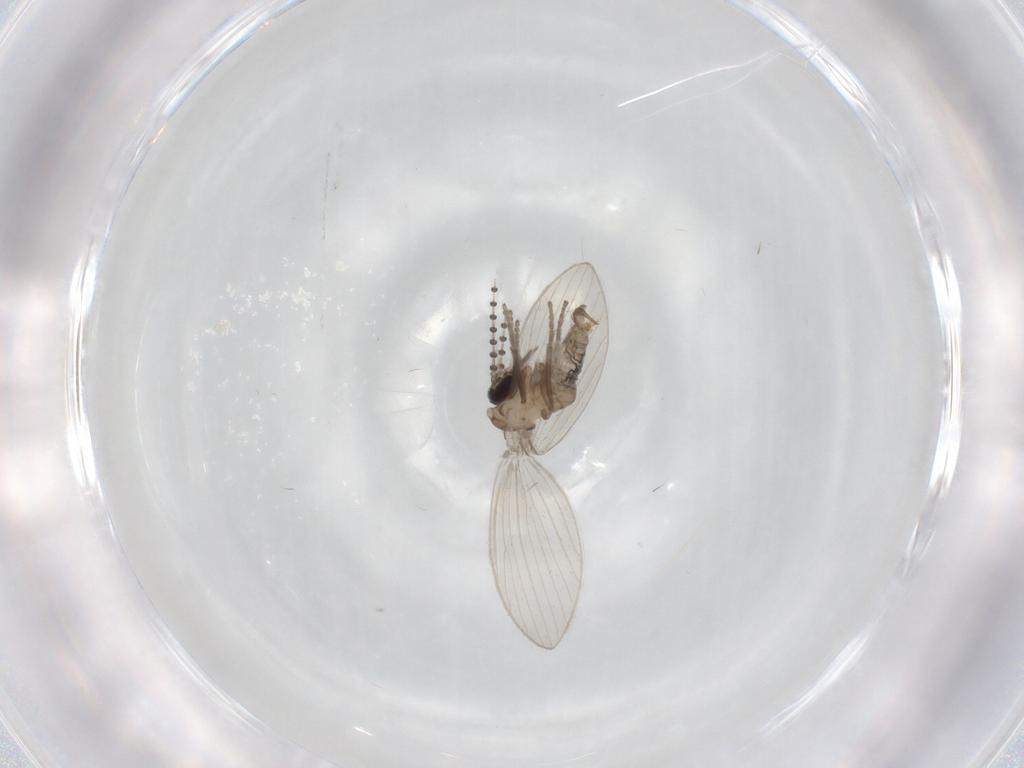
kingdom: Animalia
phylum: Arthropoda
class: Insecta
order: Diptera
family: Psychodidae
